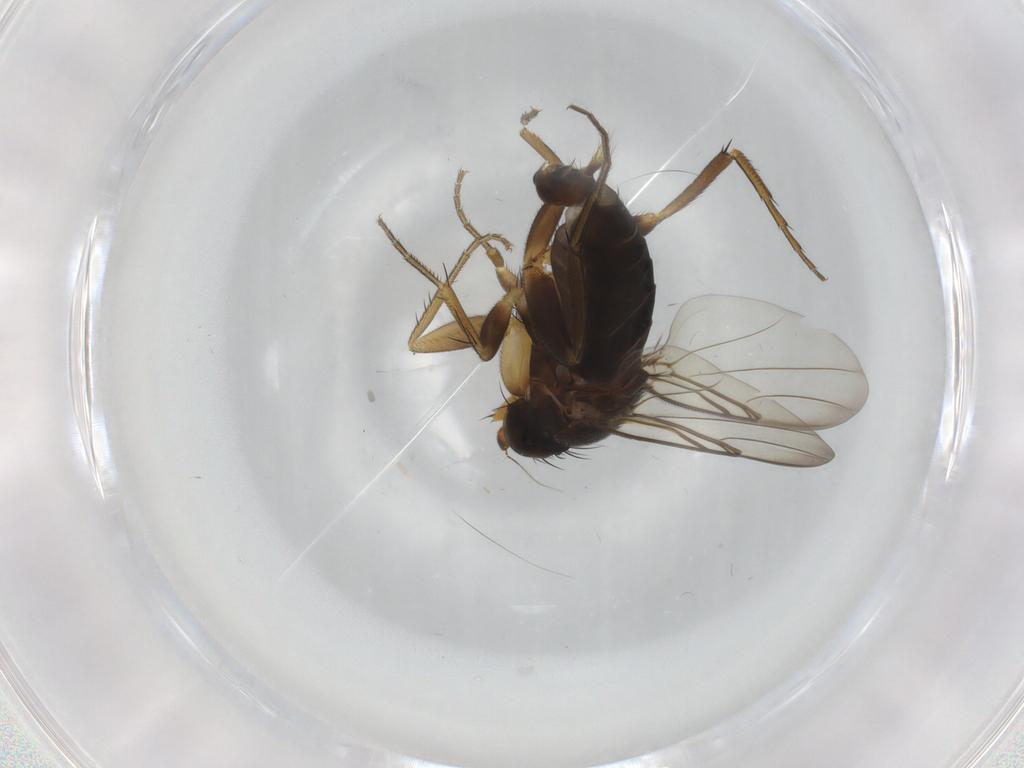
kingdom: Animalia
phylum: Arthropoda
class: Insecta
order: Diptera
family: Phoridae
